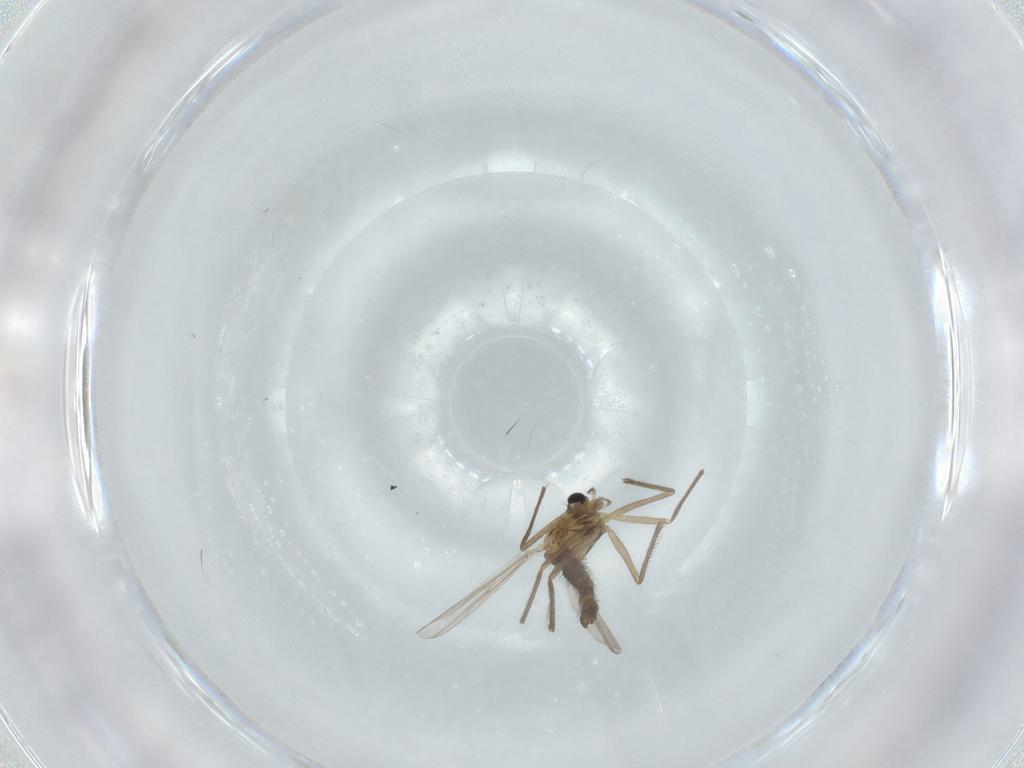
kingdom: Animalia
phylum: Arthropoda
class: Insecta
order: Diptera
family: Chironomidae
